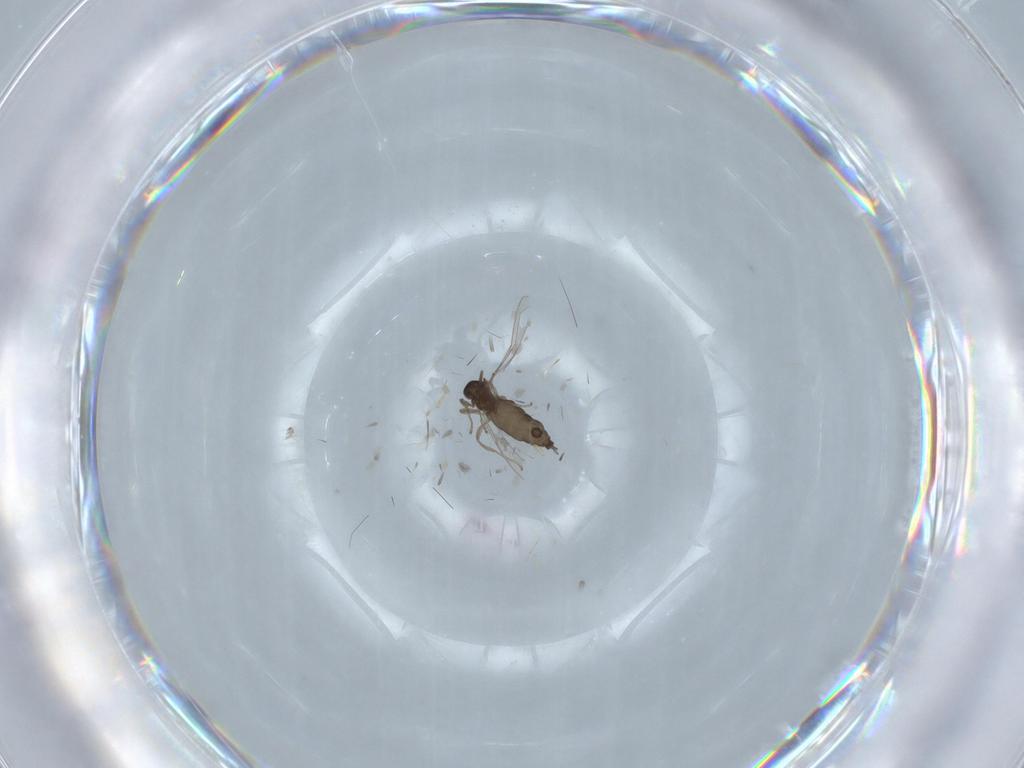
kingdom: Animalia
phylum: Arthropoda
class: Insecta
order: Diptera
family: Cecidomyiidae
